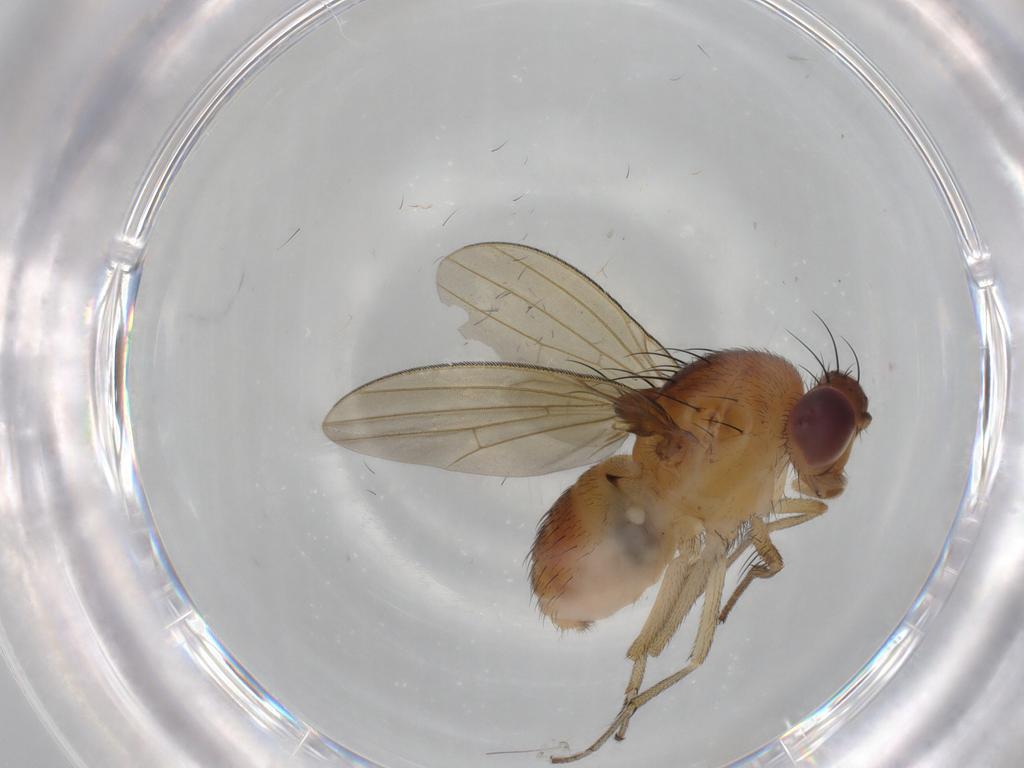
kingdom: Animalia
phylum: Arthropoda
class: Insecta
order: Diptera
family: Lauxaniidae
